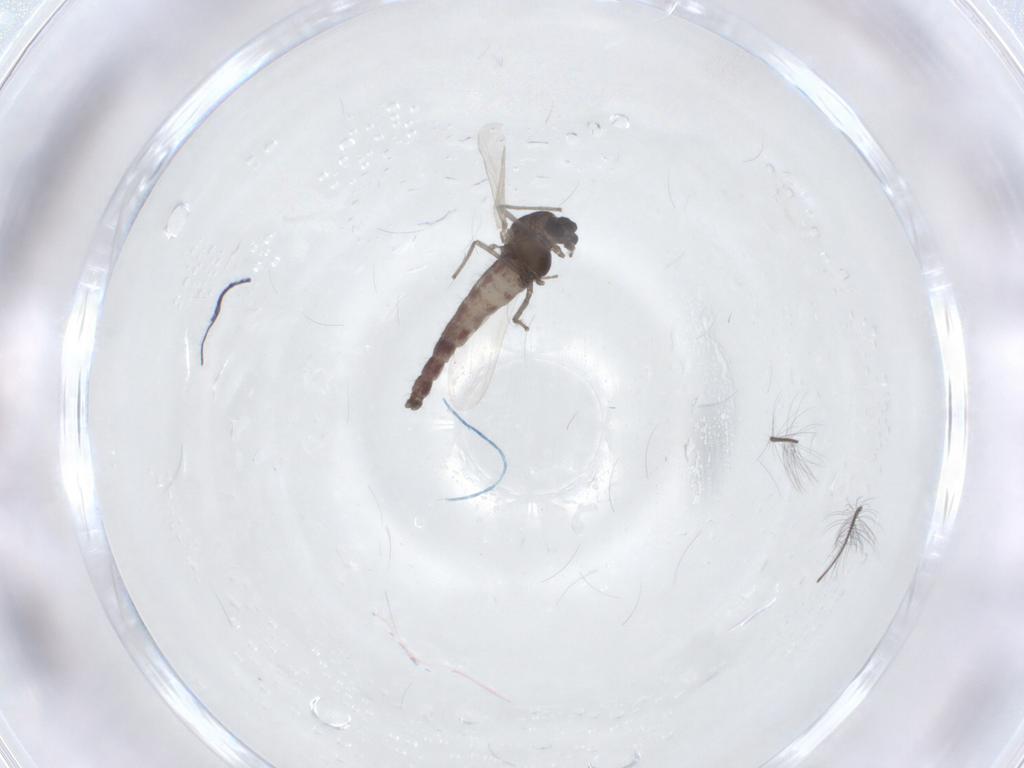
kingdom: Animalia
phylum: Arthropoda
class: Insecta
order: Diptera
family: Chironomidae
